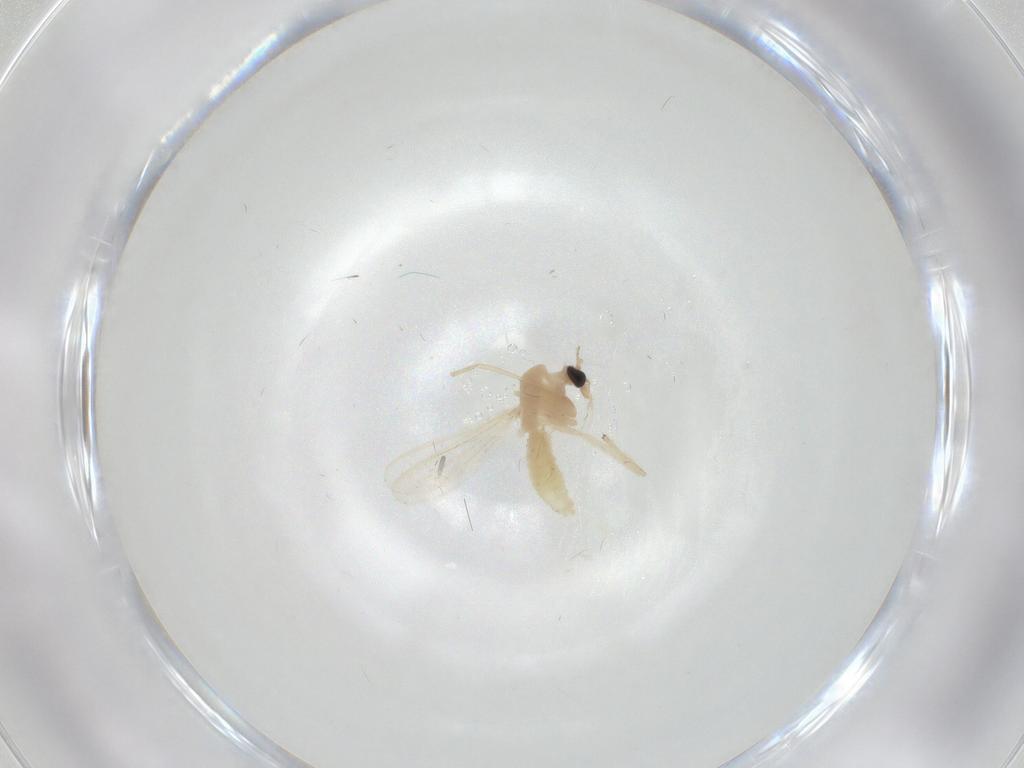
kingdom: Animalia
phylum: Arthropoda
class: Insecta
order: Diptera
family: Chironomidae
